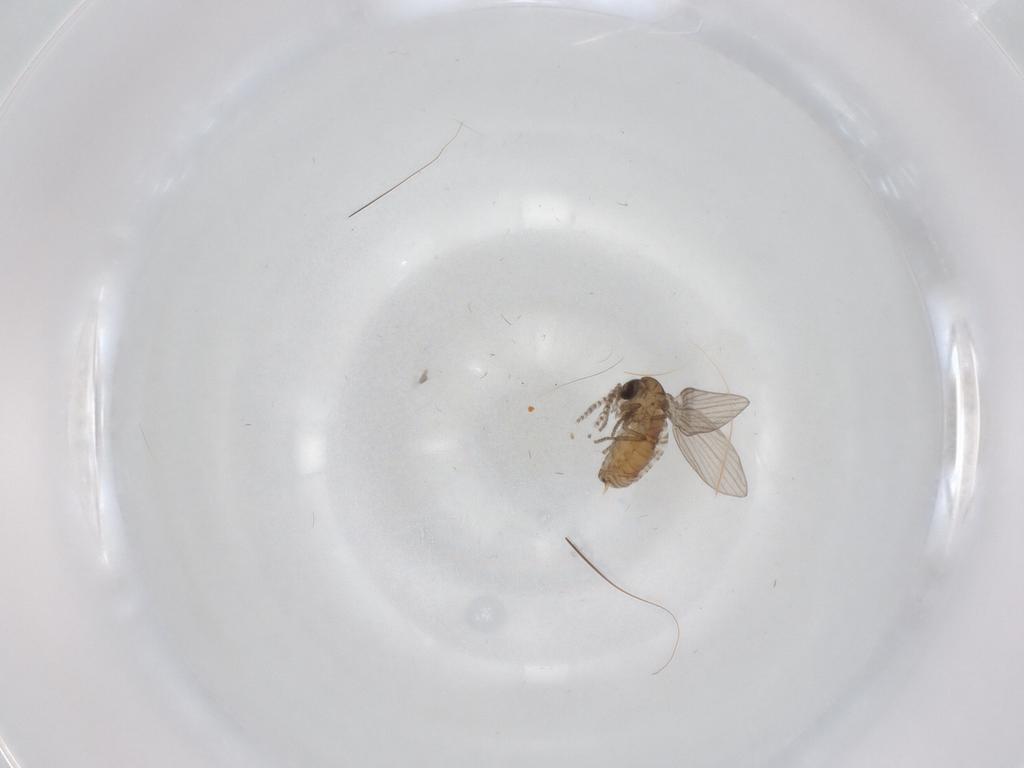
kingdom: Animalia
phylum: Arthropoda
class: Insecta
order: Diptera
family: Psychodidae
